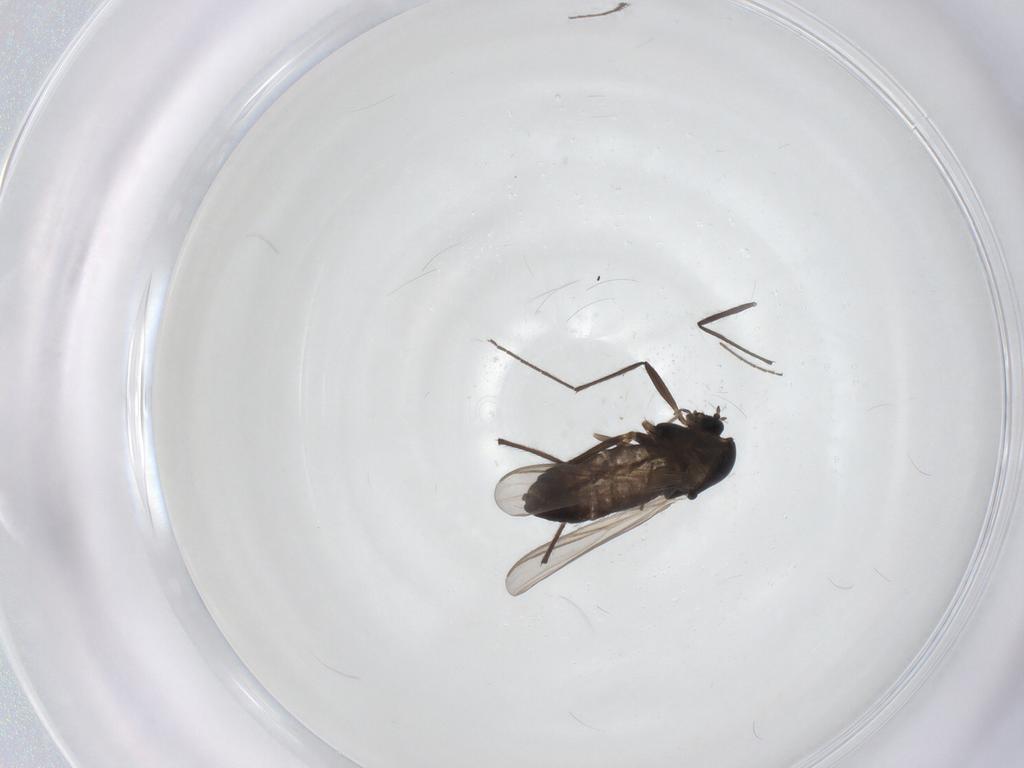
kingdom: Animalia
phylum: Arthropoda
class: Insecta
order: Diptera
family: Chironomidae
